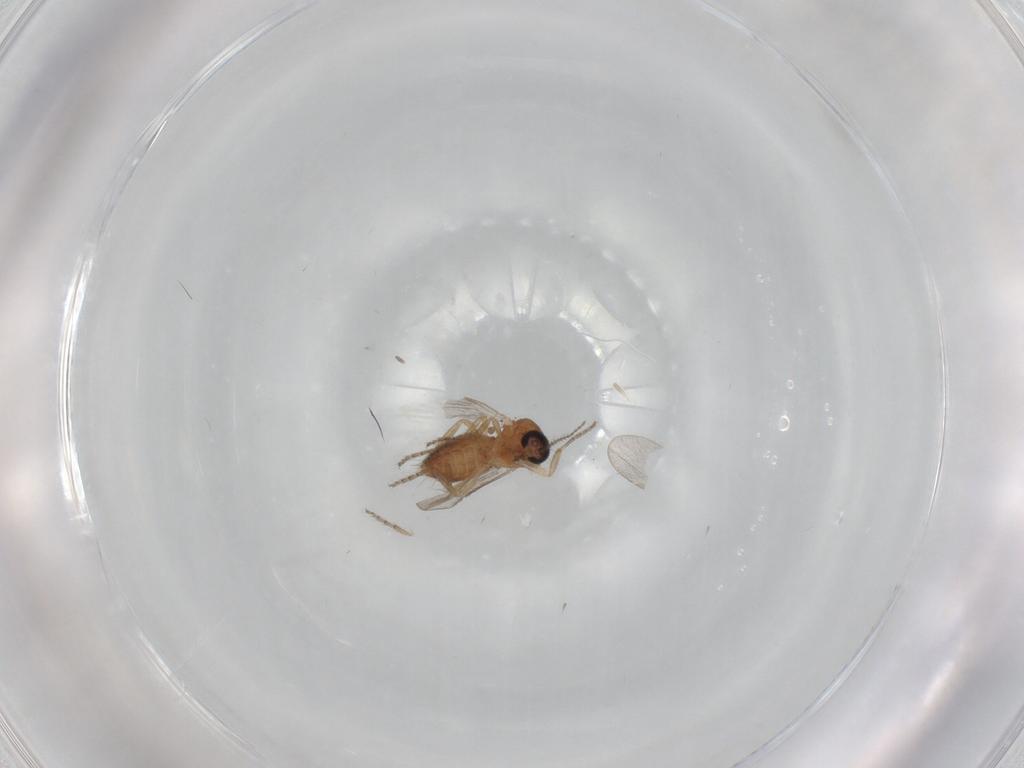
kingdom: Animalia
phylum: Arthropoda
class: Insecta
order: Diptera
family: Ceratopogonidae
